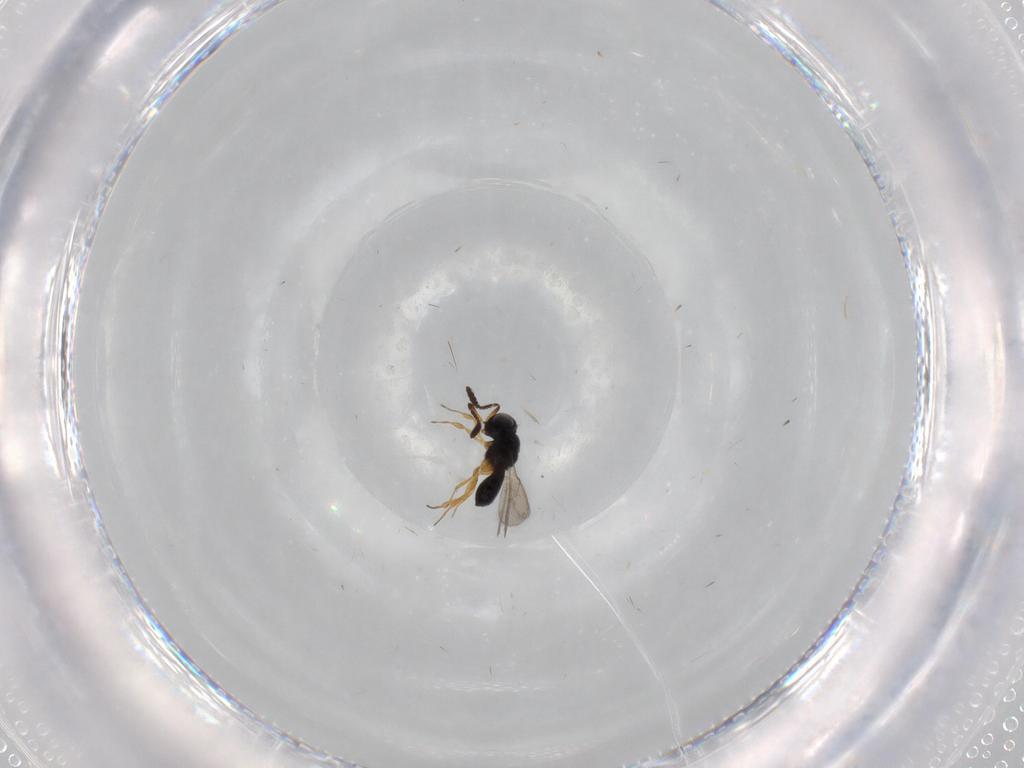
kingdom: Animalia
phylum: Arthropoda
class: Insecta
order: Hymenoptera
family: Scelionidae
